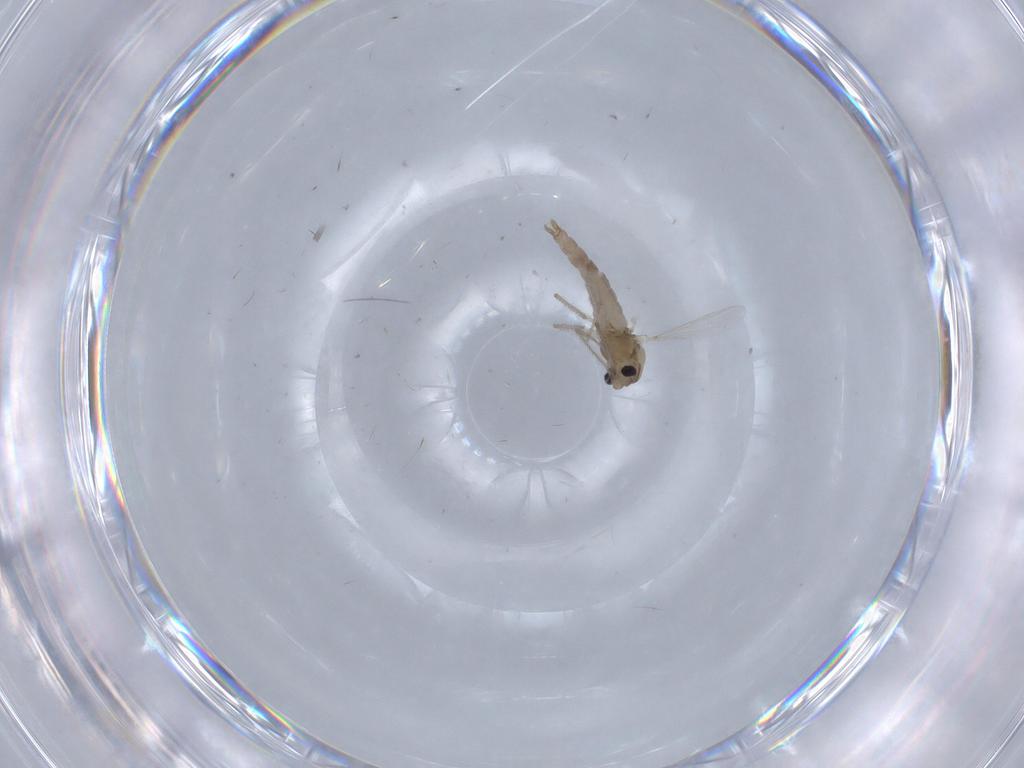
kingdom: Animalia
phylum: Arthropoda
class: Insecta
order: Diptera
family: Chironomidae
